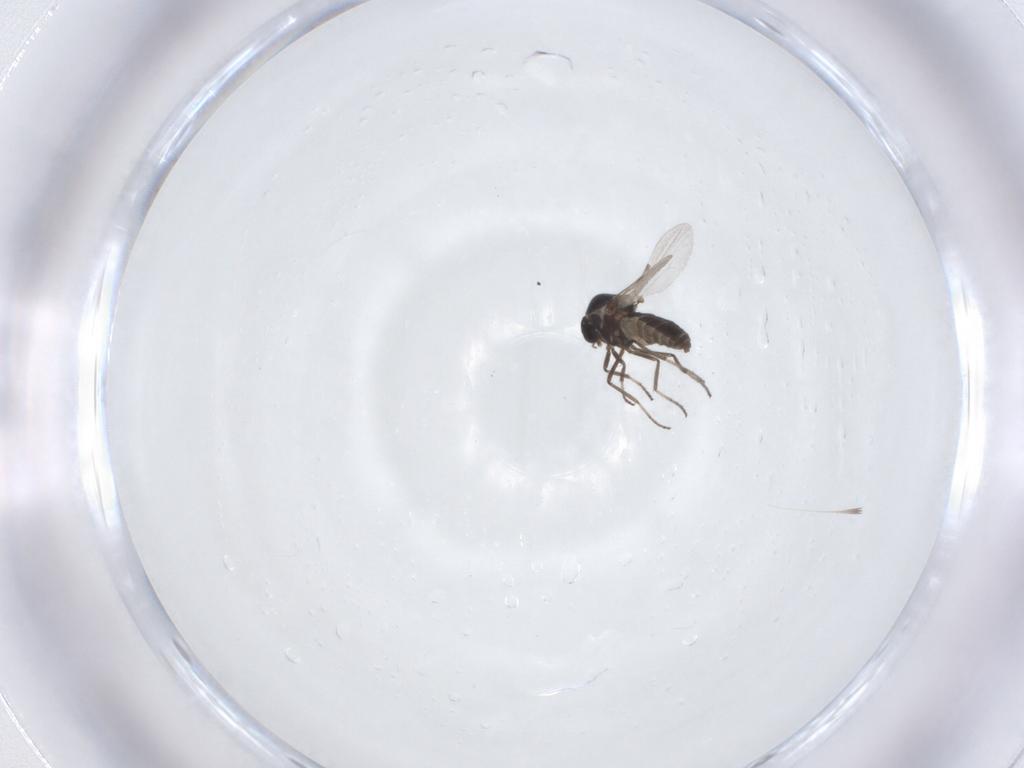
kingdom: Animalia
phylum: Arthropoda
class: Insecta
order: Diptera
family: Ceratopogonidae
